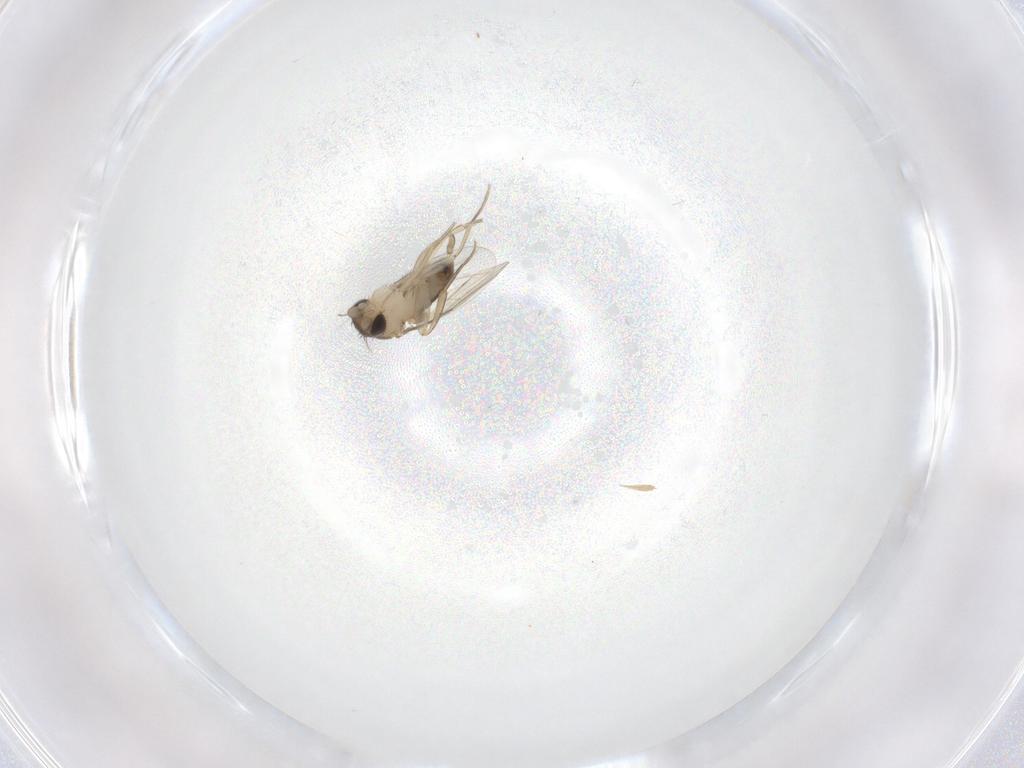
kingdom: Animalia
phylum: Arthropoda
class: Insecta
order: Diptera
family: Phoridae
